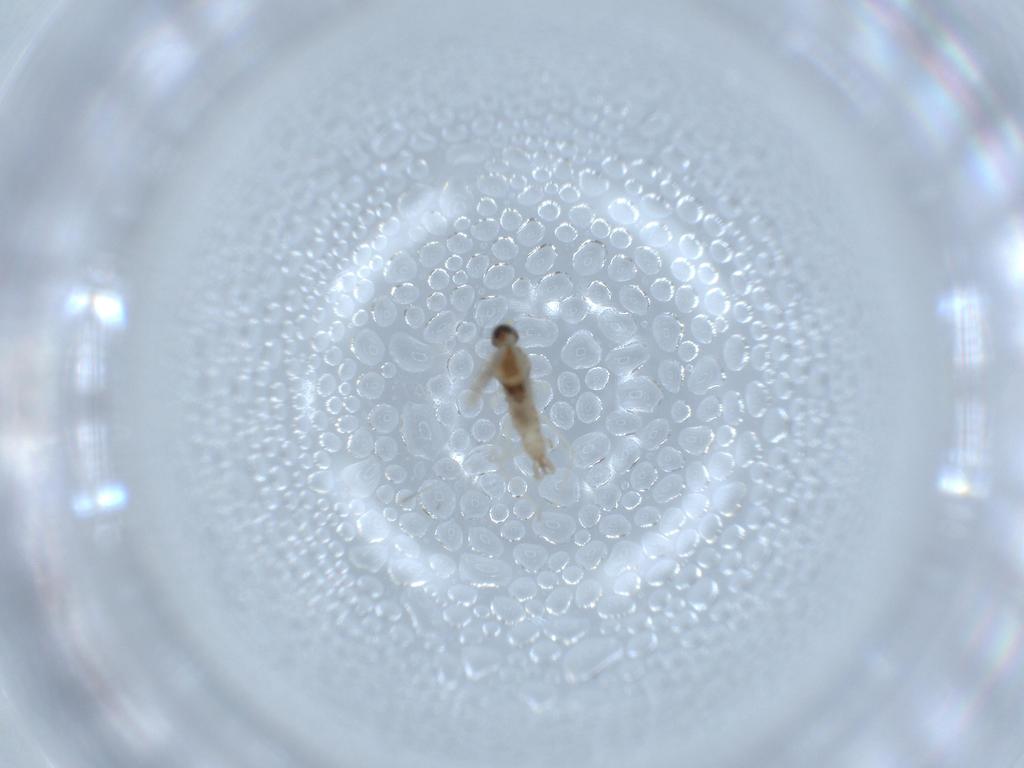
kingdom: Animalia
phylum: Arthropoda
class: Insecta
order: Diptera
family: Cecidomyiidae
